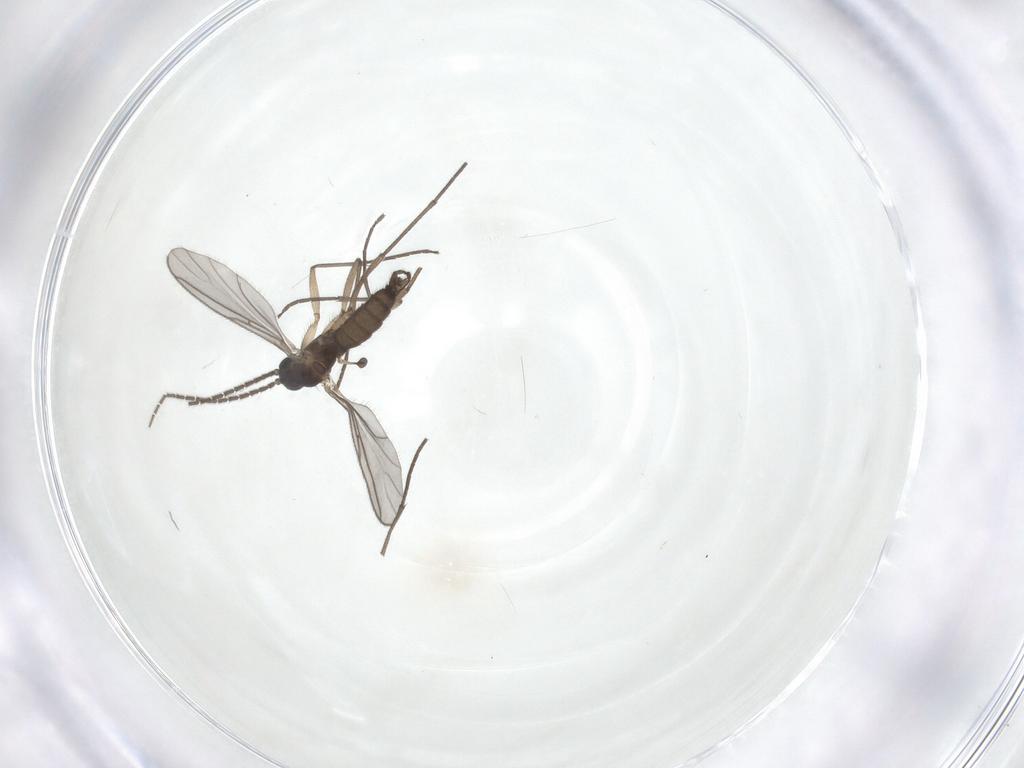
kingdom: Animalia
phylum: Arthropoda
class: Insecta
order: Diptera
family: Sciaridae
